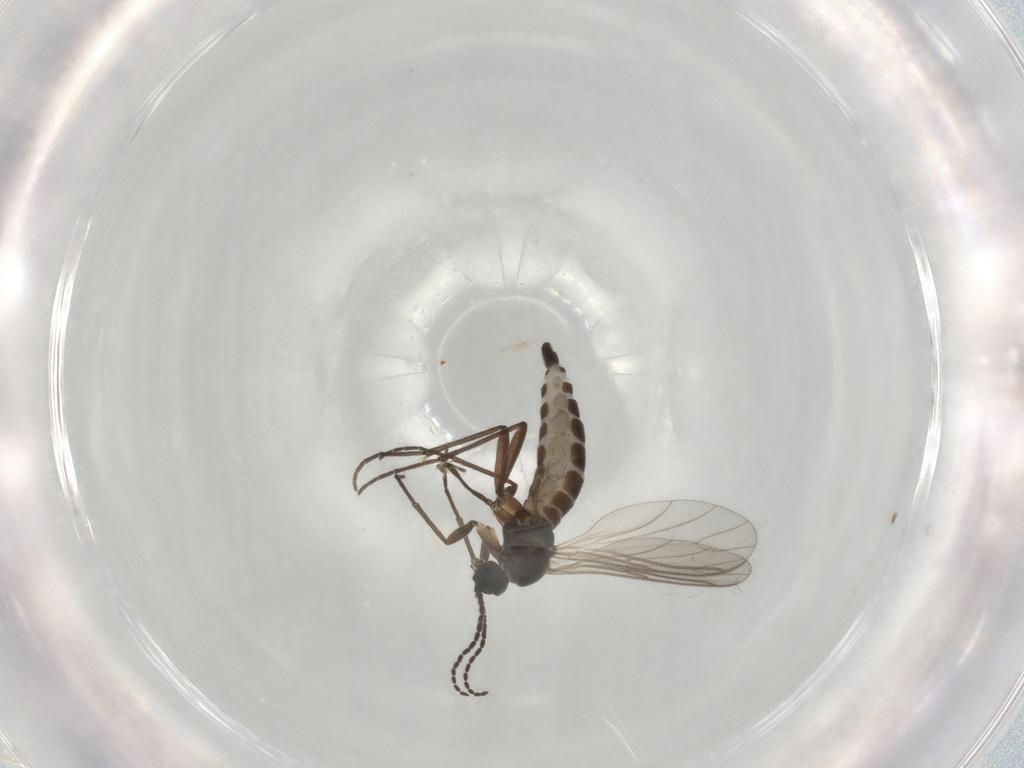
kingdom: Animalia
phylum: Arthropoda
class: Insecta
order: Diptera
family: Sciaridae
